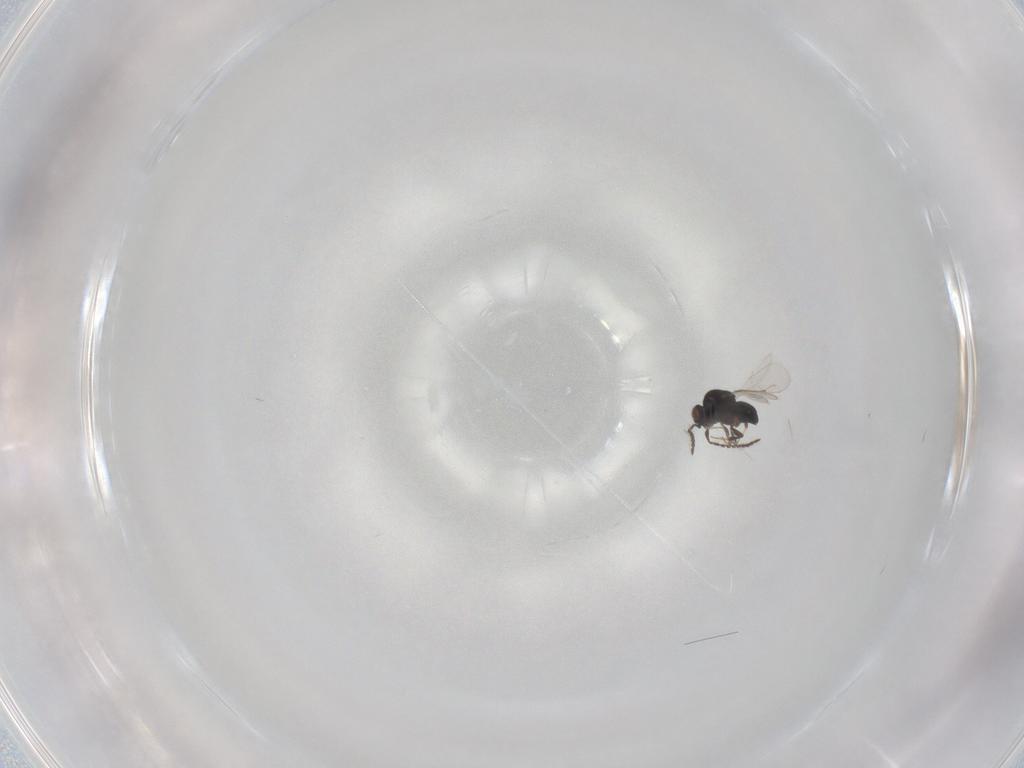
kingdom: Animalia
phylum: Arthropoda
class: Insecta
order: Hymenoptera
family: Chrysididae
